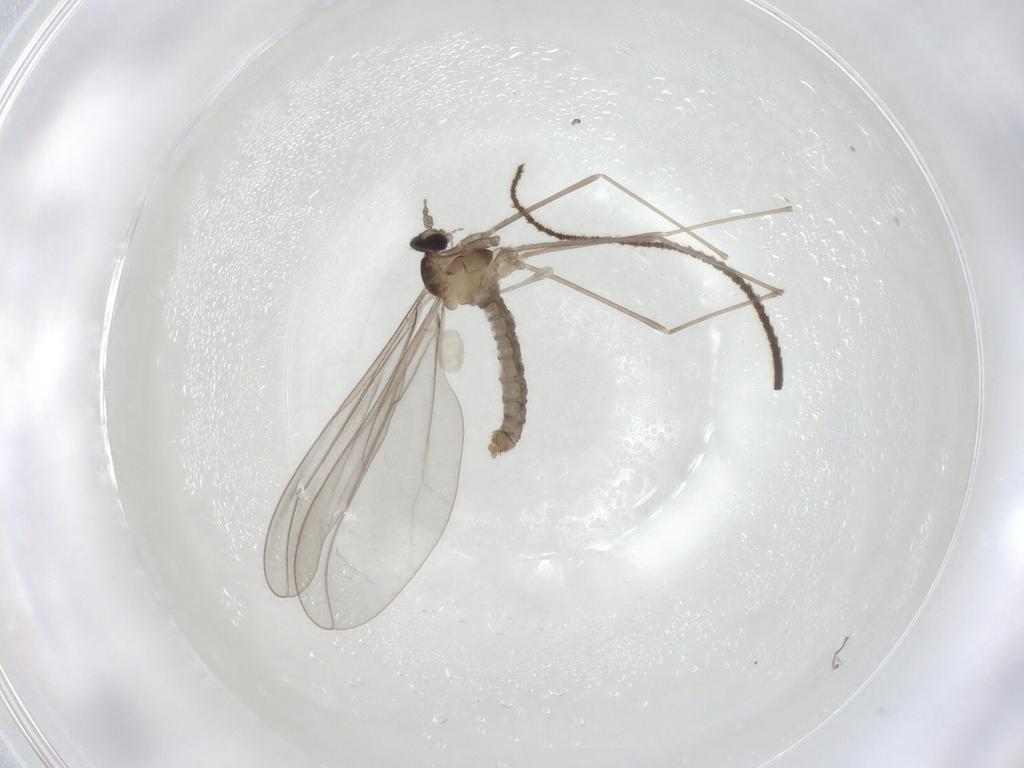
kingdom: Animalia
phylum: Arthropoda
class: Insecta
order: Diptera
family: Cecidomyiidae
